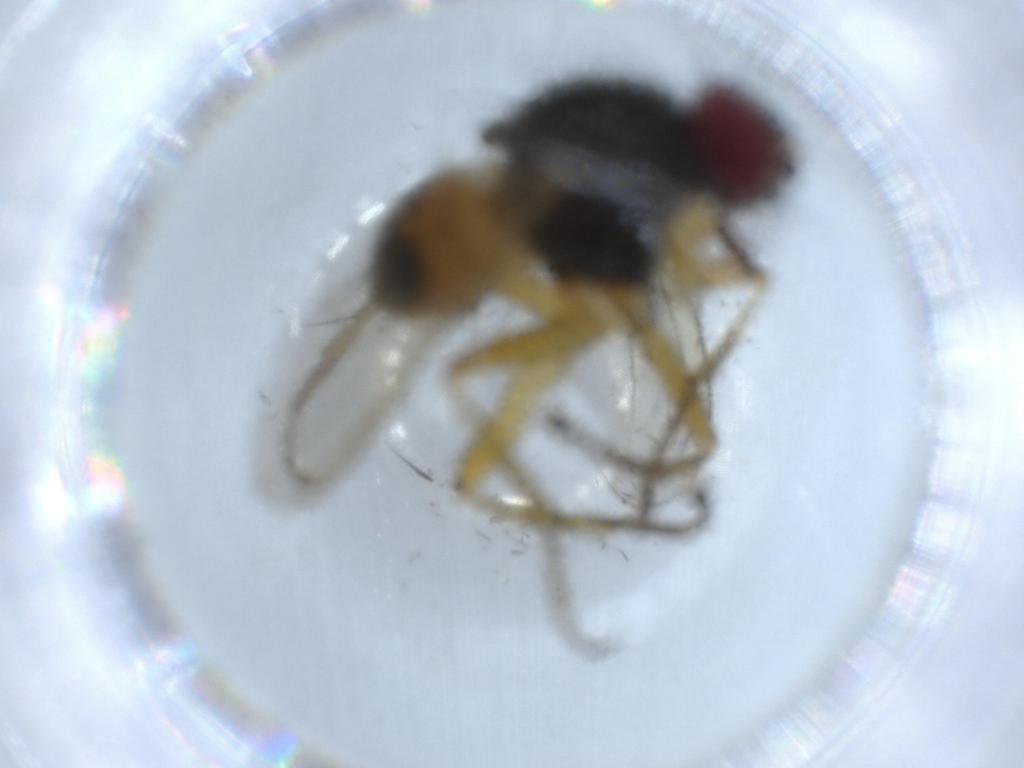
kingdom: Animalia
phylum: Arthropoda
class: Insecta
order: Diptera
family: Muscidae
